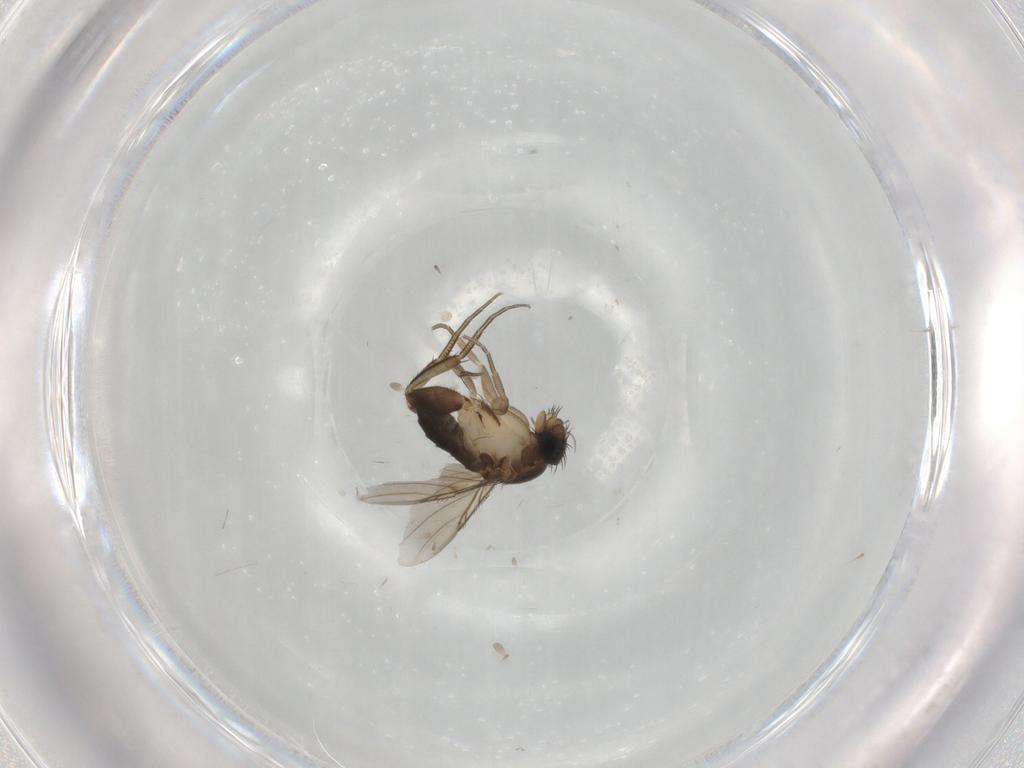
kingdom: Animalia
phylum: Arthropoda
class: Insecta
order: Diptera
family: Phoridae
